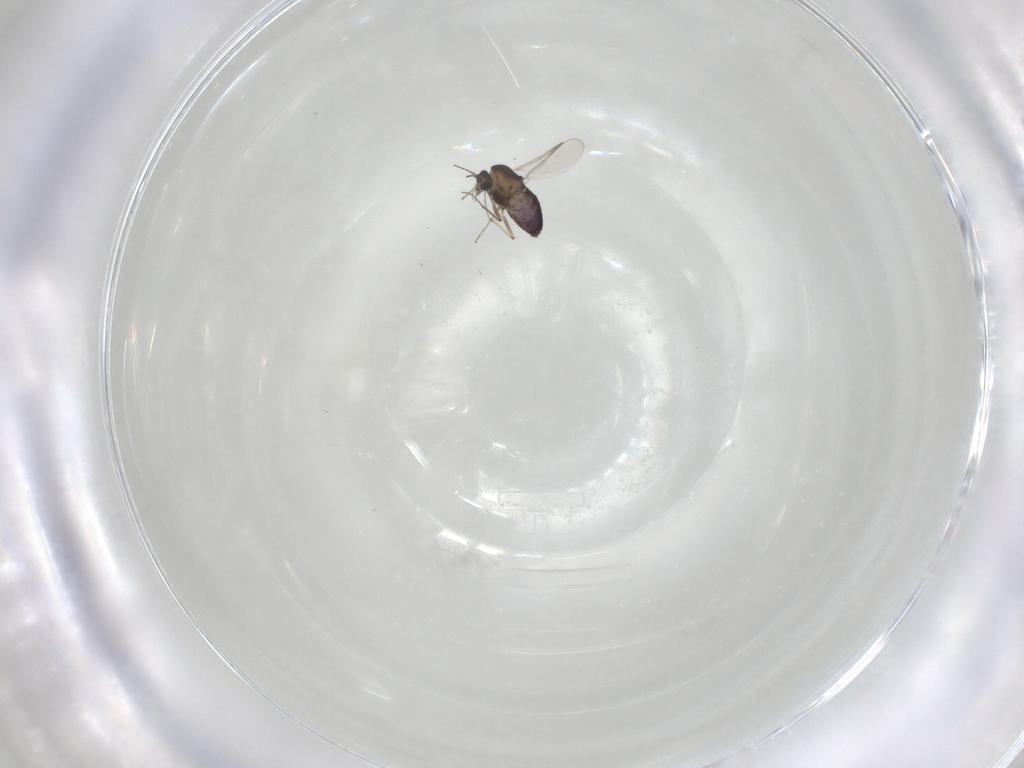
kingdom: Animalia
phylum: Arthropoda
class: Insecta
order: Diptera
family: Chironomidae
